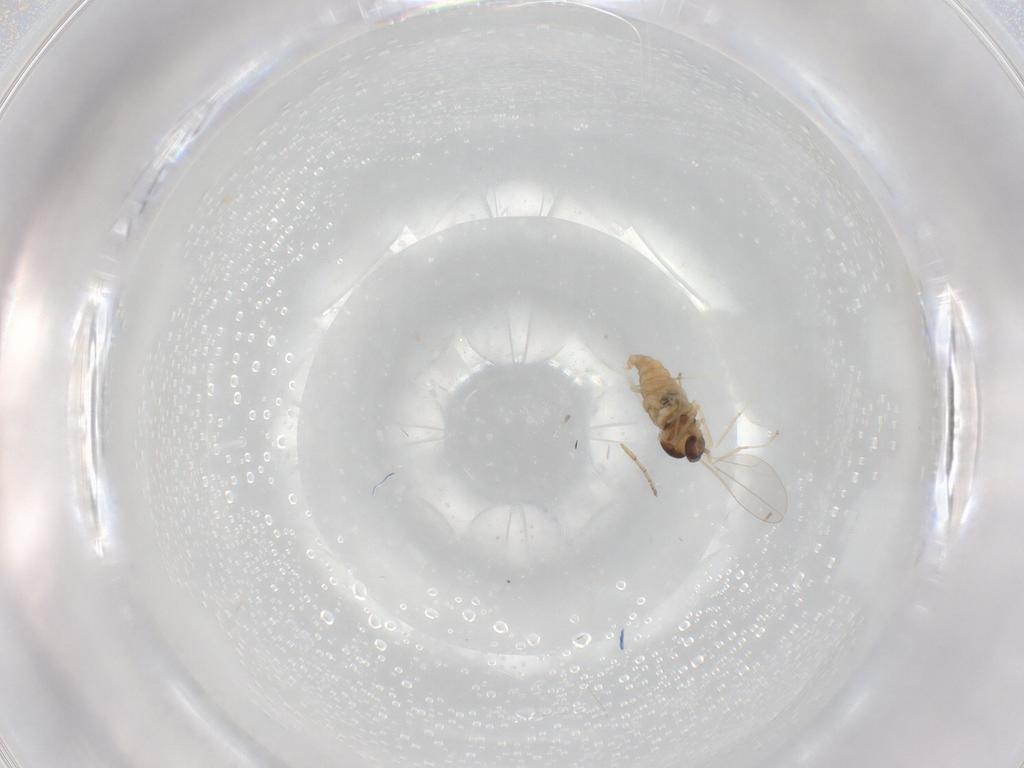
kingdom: Animalia
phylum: Arthropoda
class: Insecta
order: Diptera
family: Cecidomyiidae
